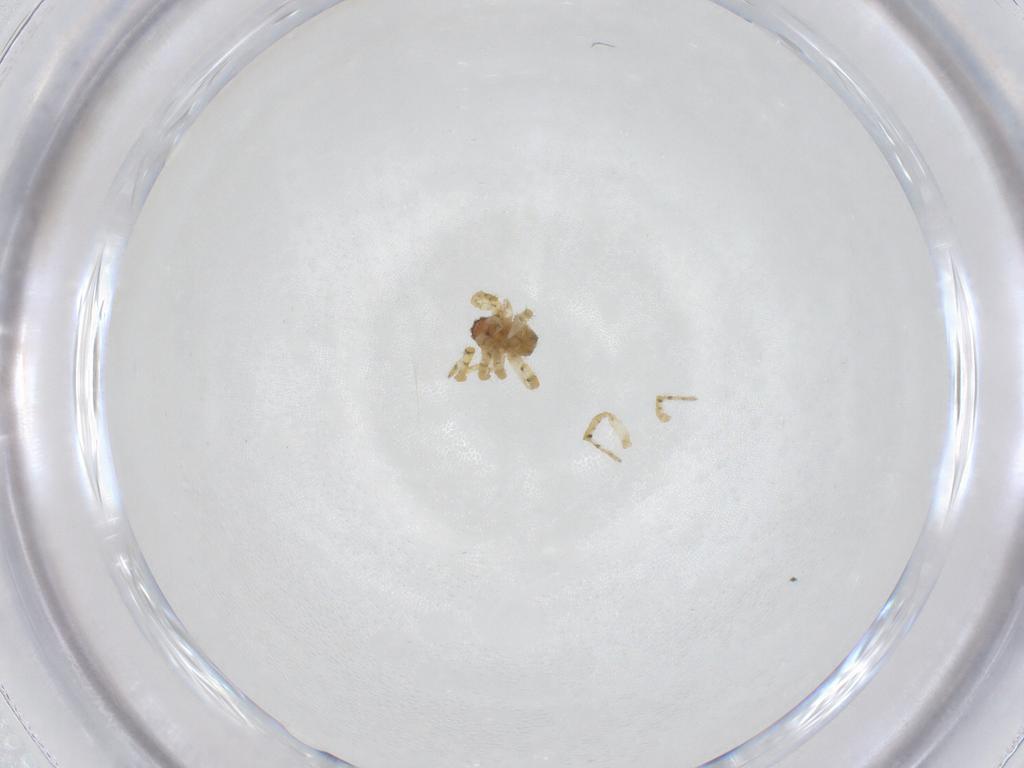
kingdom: Animalia
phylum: Arthropoda
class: Arachnida
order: Araneae
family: Theridiidae
